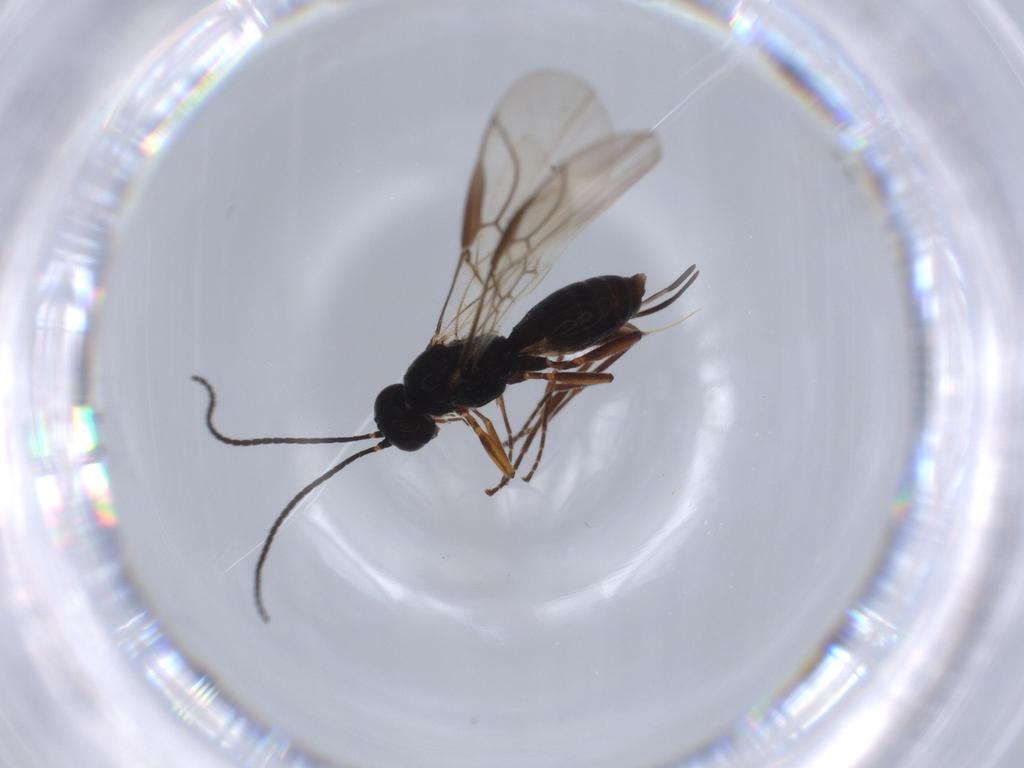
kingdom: Animalia
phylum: Arthropoda
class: Insecta
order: Hymenoptera
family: Braconidae
